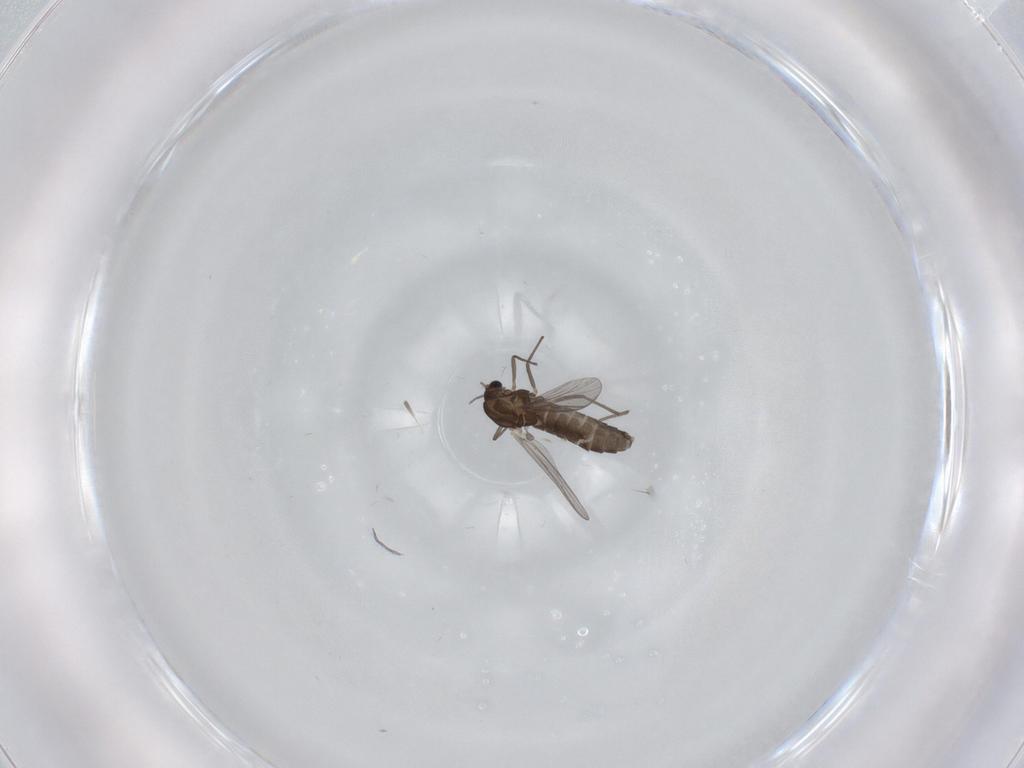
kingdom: Animalia
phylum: Arthropoda
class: Insecta
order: Diptera
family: Chironomidae
